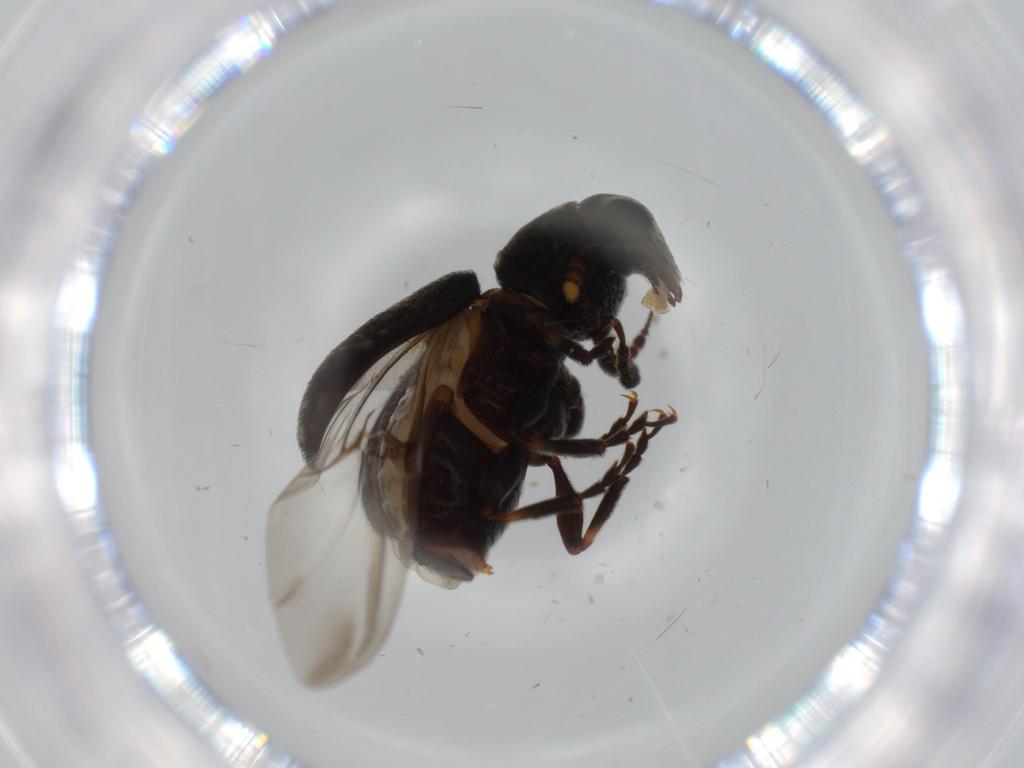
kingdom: Animalia
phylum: Arthropoda
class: Insecta
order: Coleoptera
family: Anthribidae
